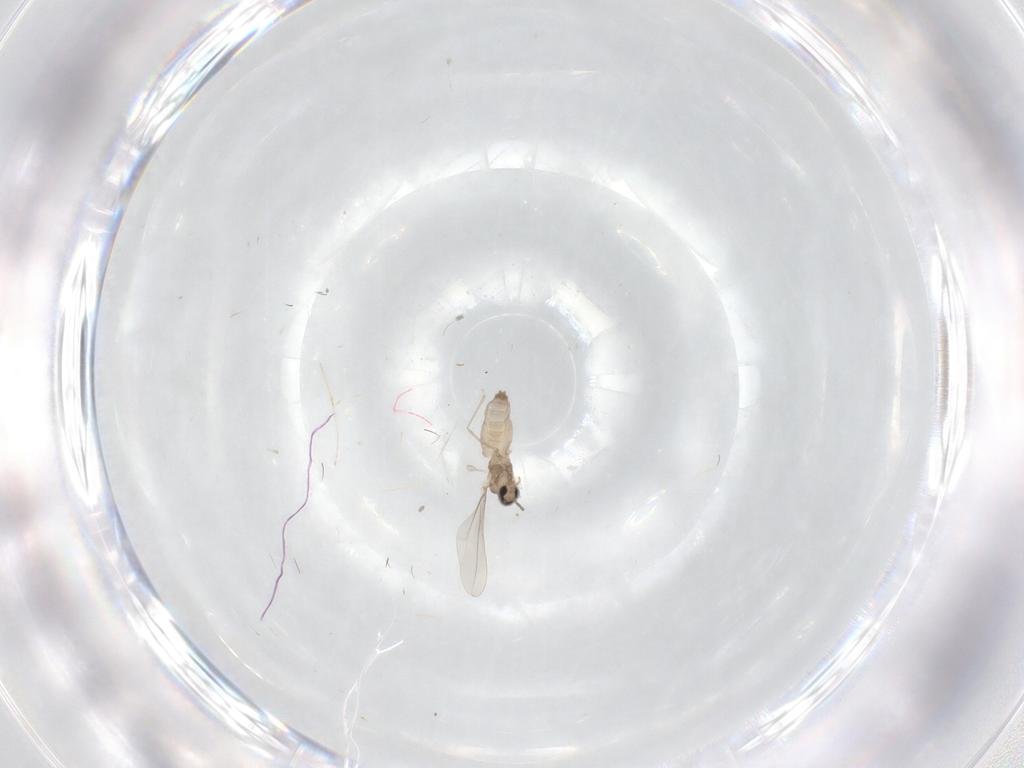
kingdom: Animalia
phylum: Arthropoda
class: Insecta
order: Diptera
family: Cecidomyiidae
